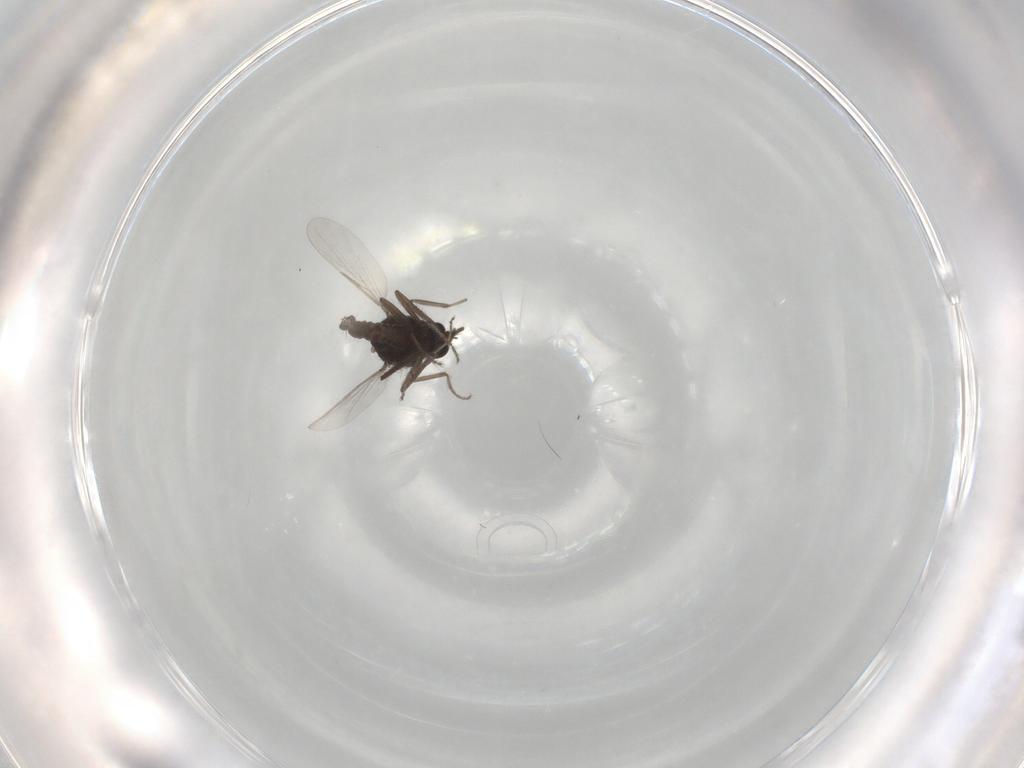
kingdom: Animalia
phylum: Arthropoda
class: Insecta
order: Diptera
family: Ceratopogonidae
